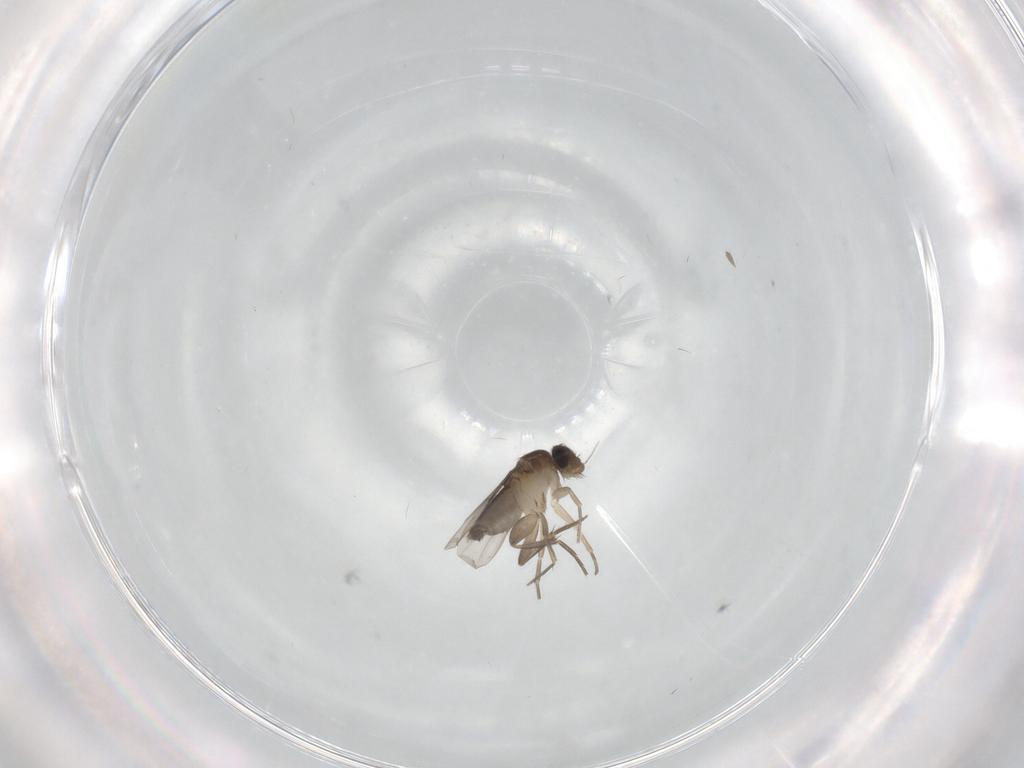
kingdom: Animalia
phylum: Arthropoda
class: Insecta
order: Diptera
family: Phoridae
